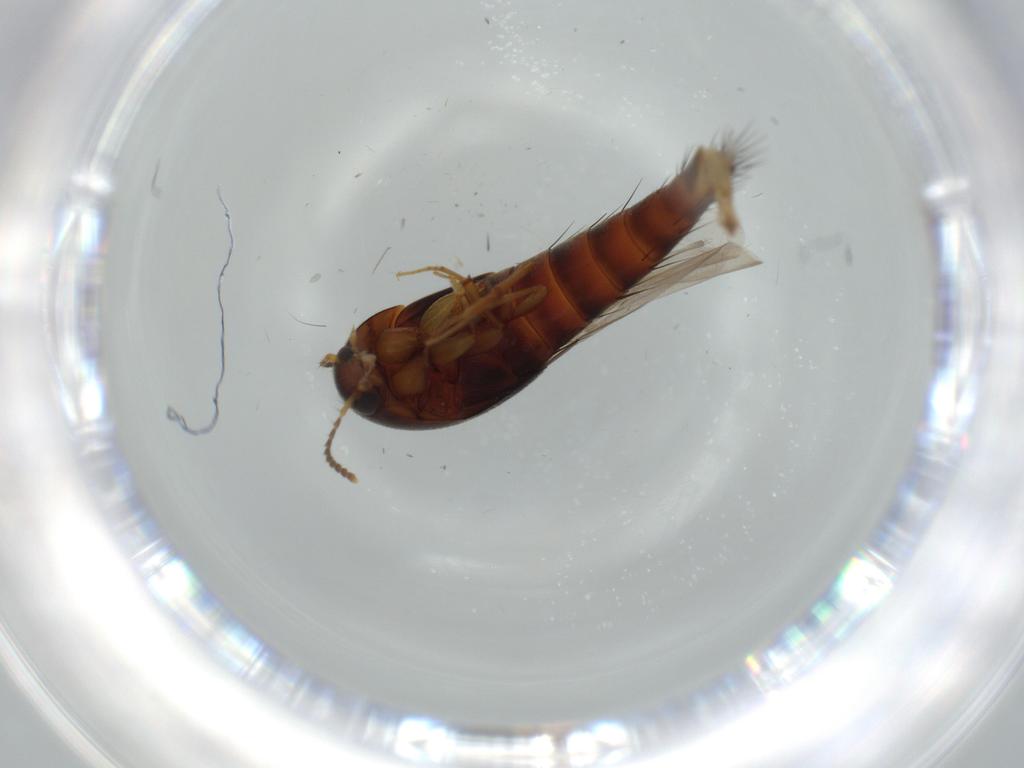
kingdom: Animalia
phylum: Arthropoda
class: Insecta
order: Coleoptera
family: Staphylinidae
